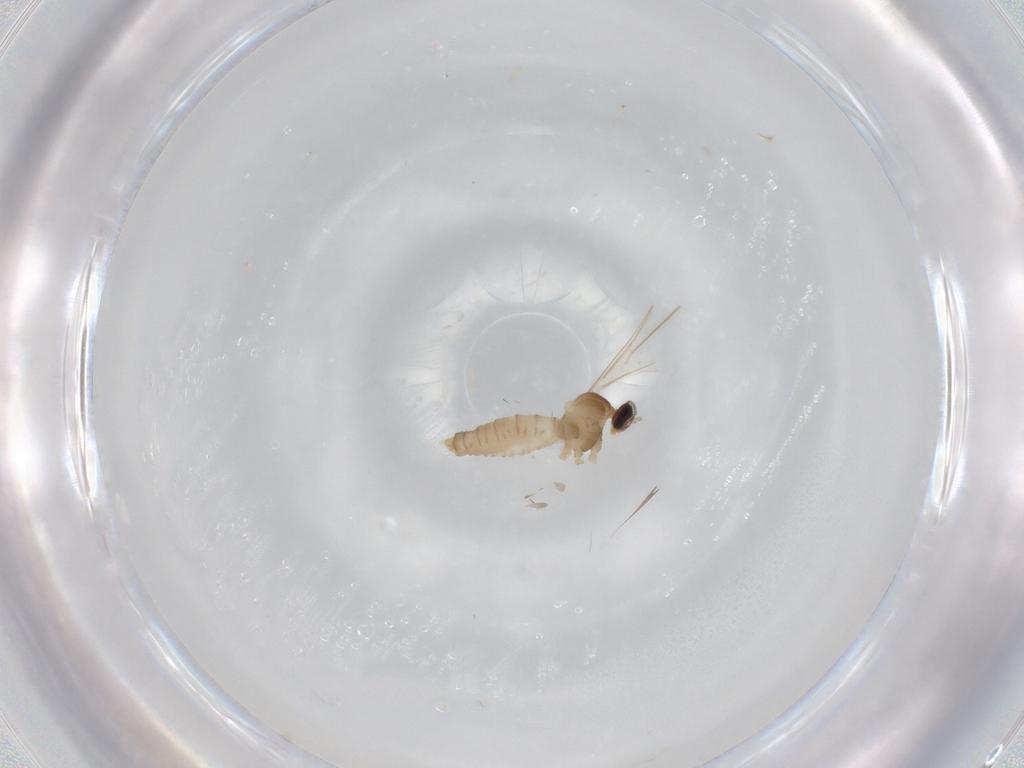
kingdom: Animalia
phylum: Arthropoda
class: Insecta
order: Diptera
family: Cecidomyiidae
